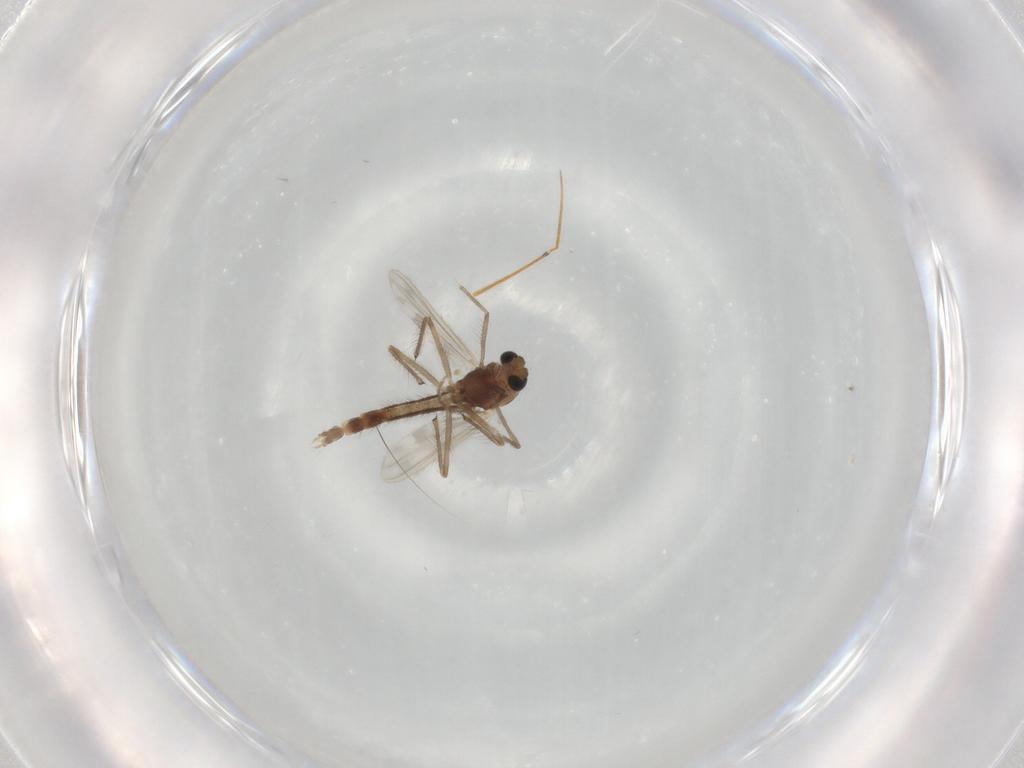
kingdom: Animalia
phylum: Arthropoda
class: Insecta
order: Diptera
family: Chironomidae
